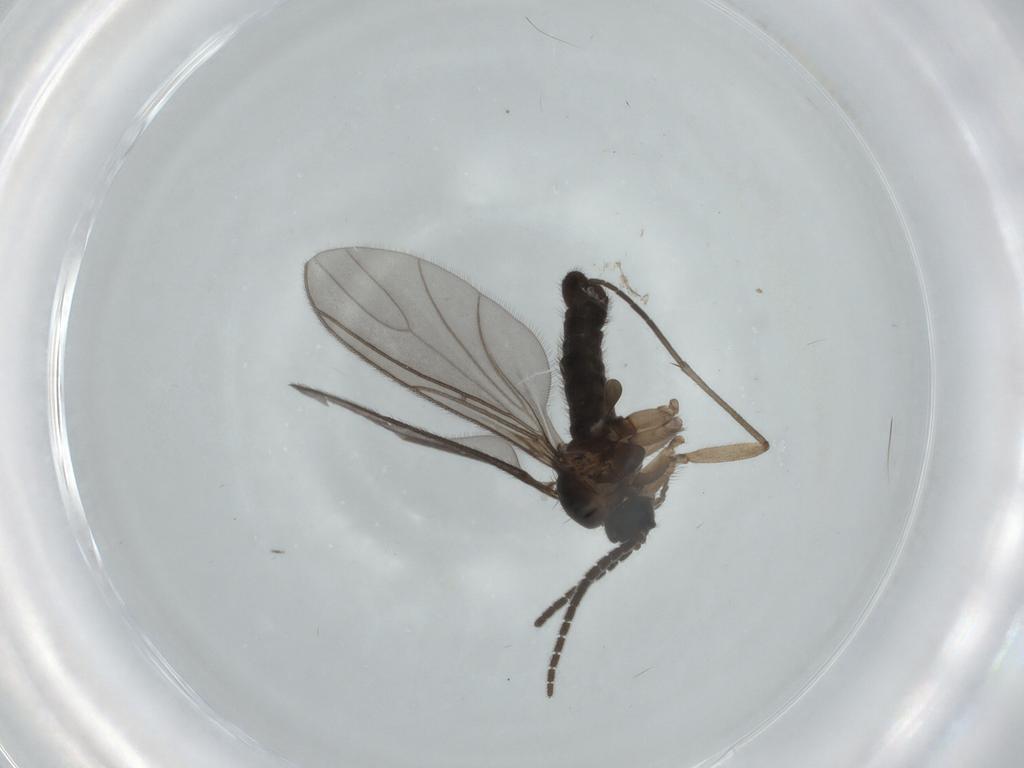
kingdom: Animalia
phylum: Arthropoda
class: Insecta
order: Diptera
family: Sciaridae
